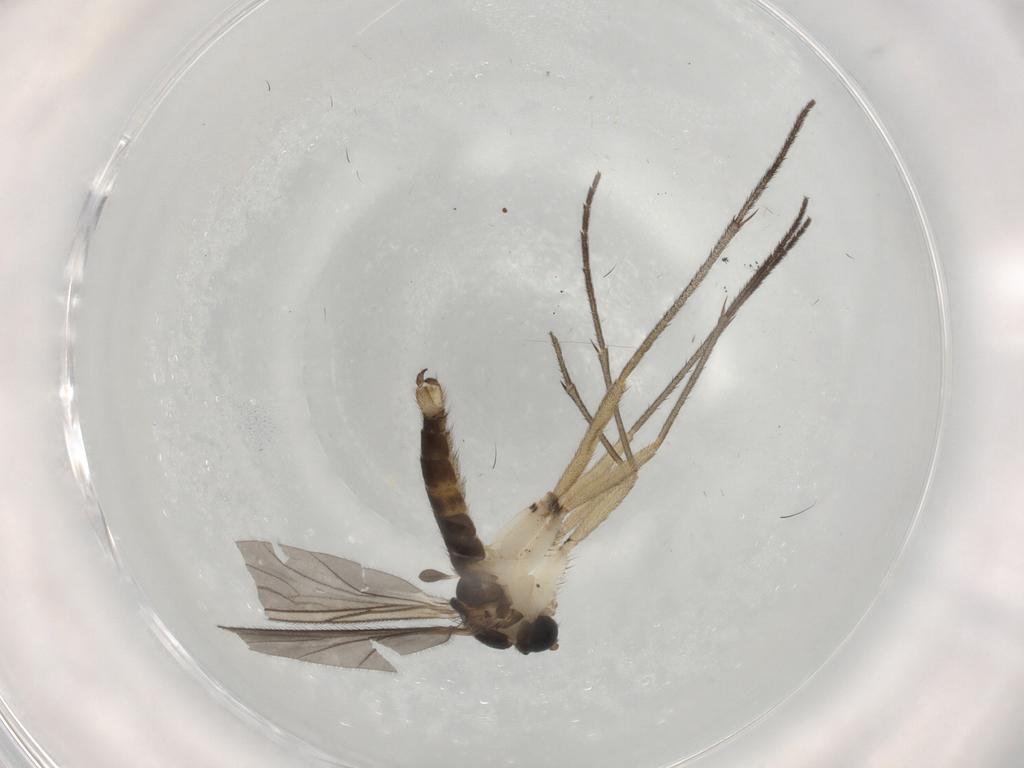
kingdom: Animalia
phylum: Arthropoda
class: Insecta
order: Diptera
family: Sciaridae
